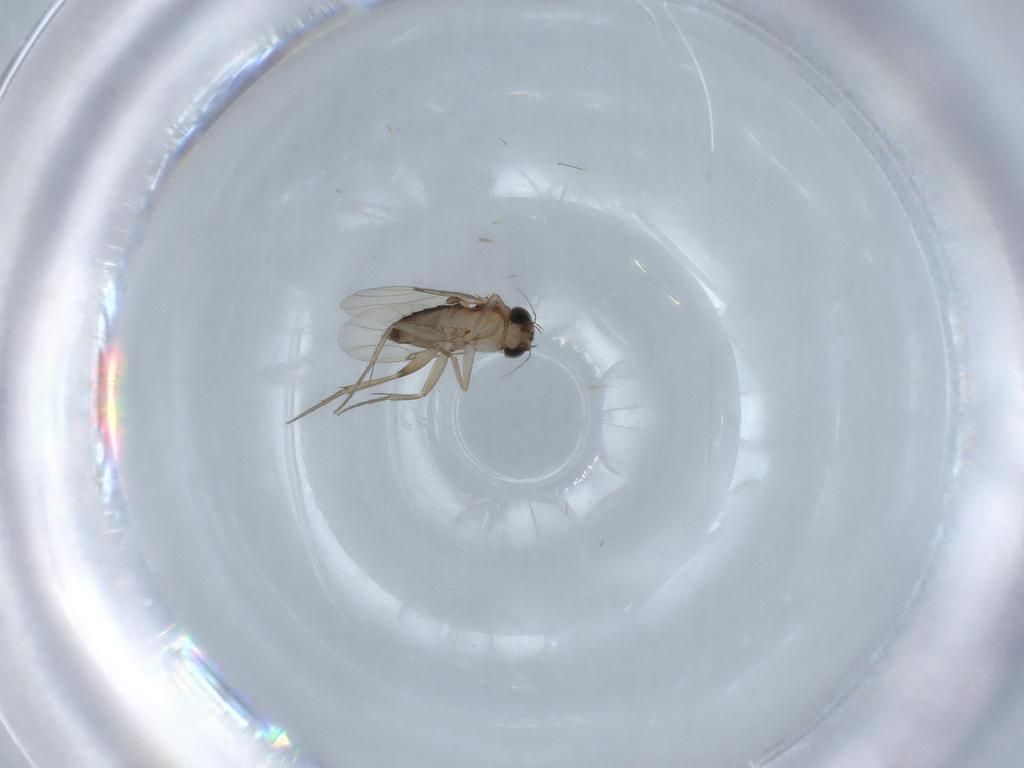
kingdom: Animalia
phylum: Arthropoda
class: Insecta
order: Diptera
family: Phoridae
